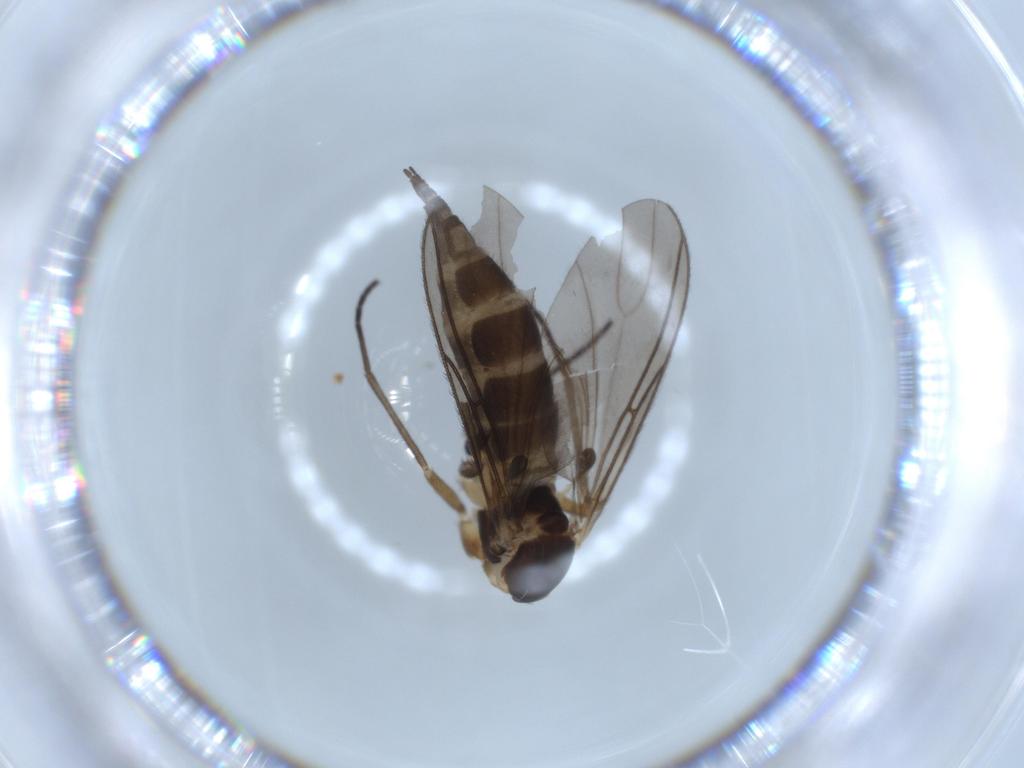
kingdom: Animalia
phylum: Arthropoda
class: Insecta
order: Diptera
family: Sciaridae
